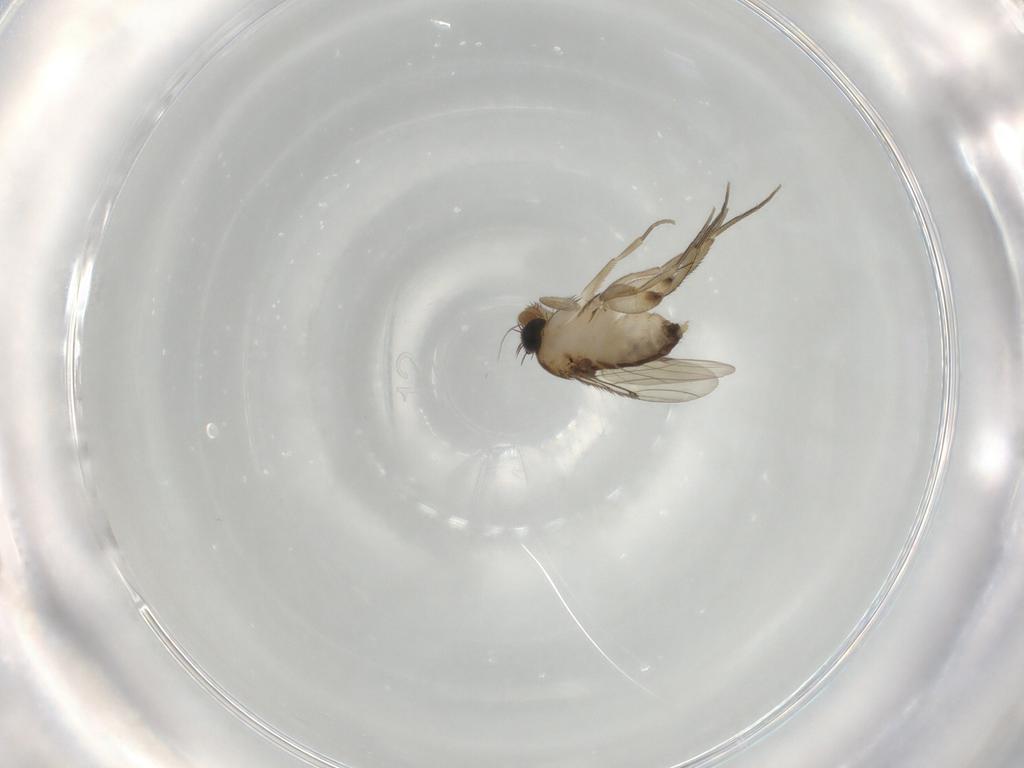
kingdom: Animalia
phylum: Arthropoda
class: Insecta
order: Diptera
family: Phoridae
